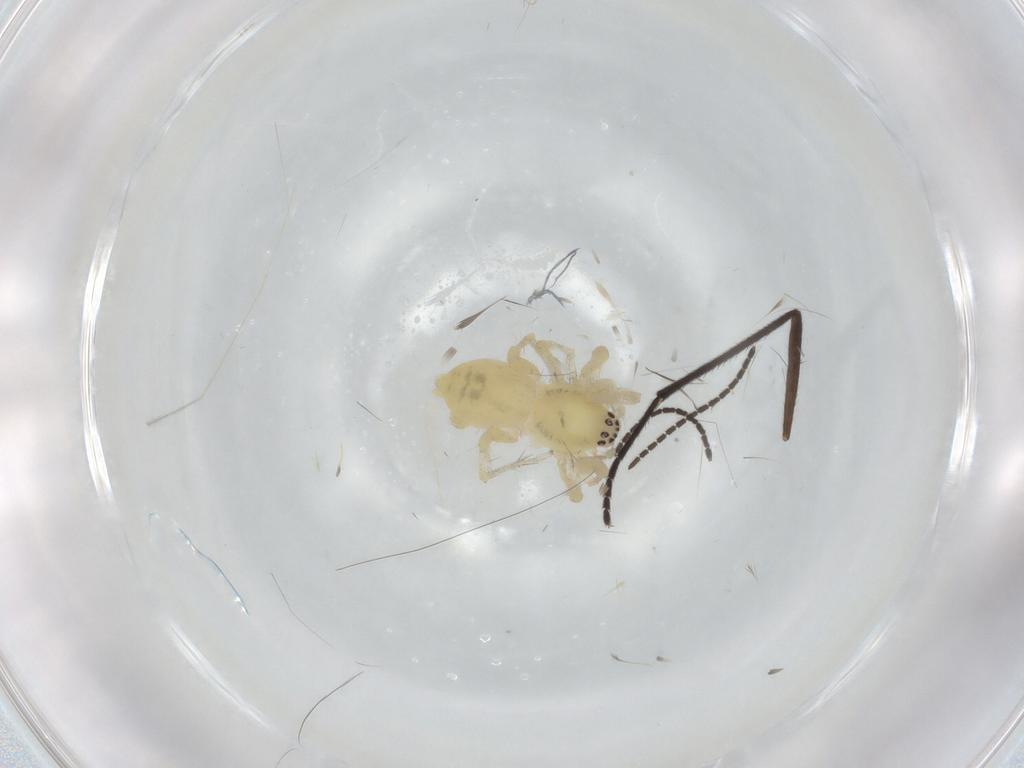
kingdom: Animalia
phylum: Arthropoda
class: Arachnida
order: Araneae
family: Anyphaenidae
